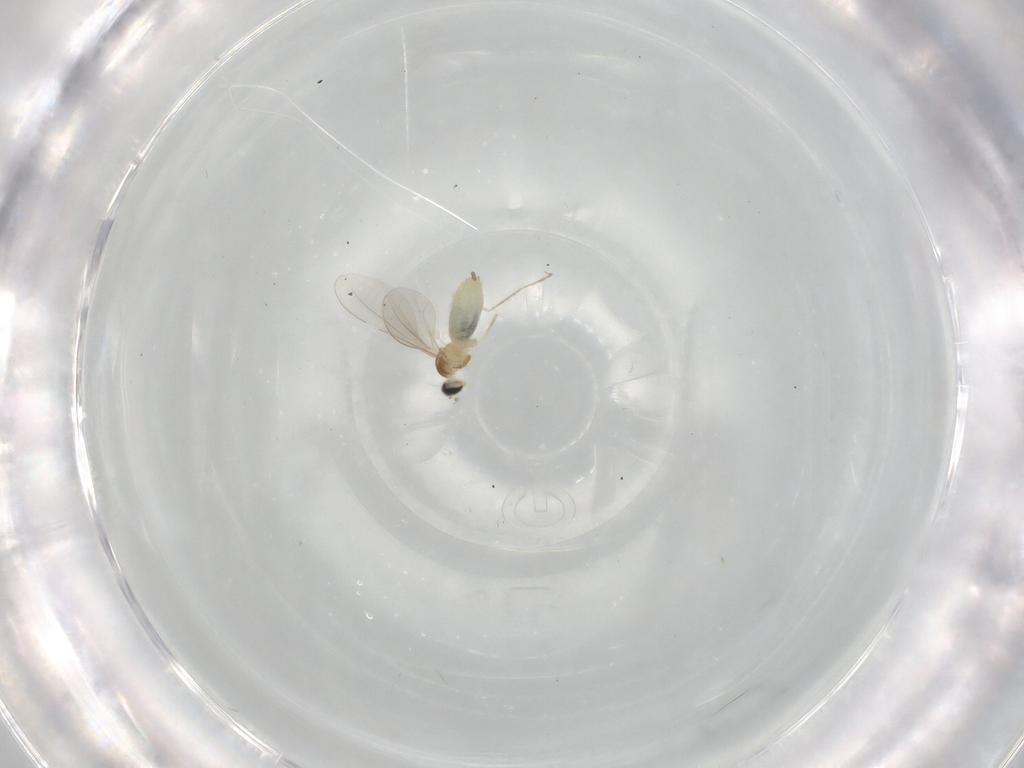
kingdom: Animalia
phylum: Arthropoda
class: Insecta
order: Diptera
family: Cecidomyiidae
